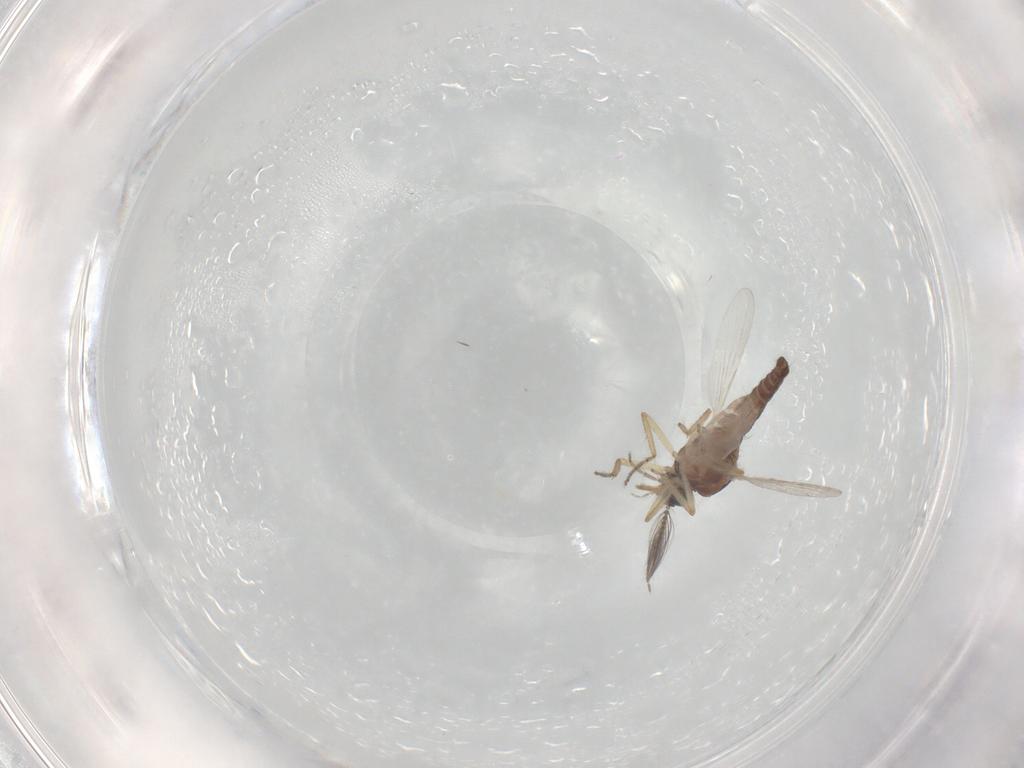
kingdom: Animalia
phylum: Arthropoda
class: Insecta
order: Diptera
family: Ceratopogonidae
